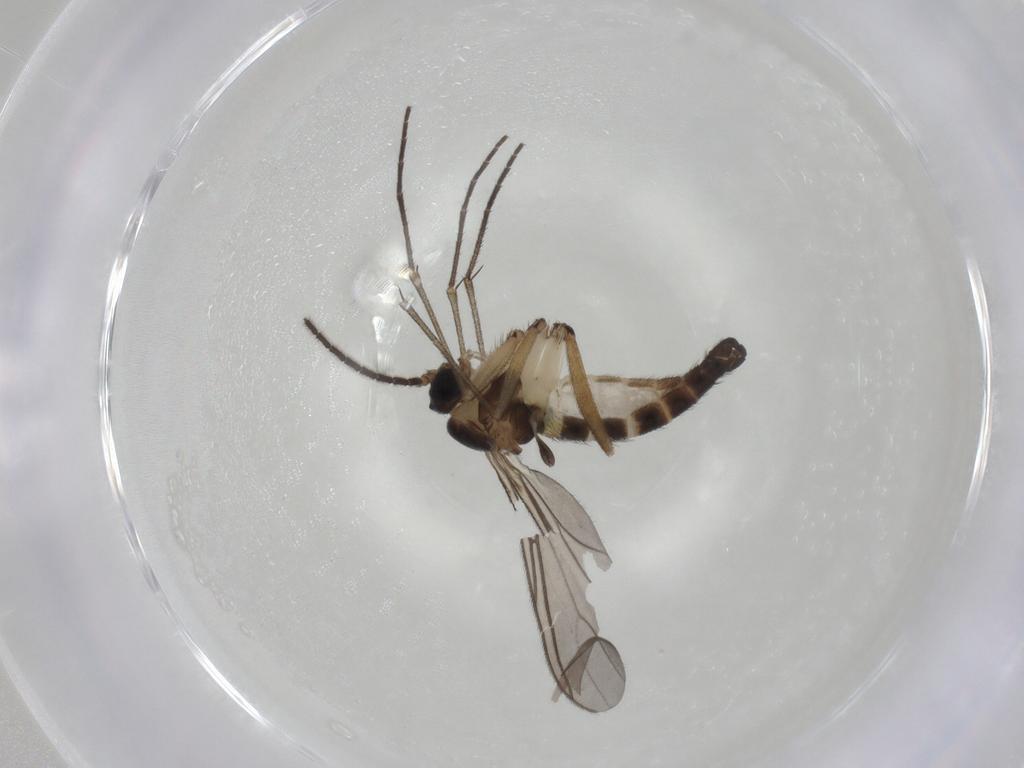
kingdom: Animalia
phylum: Arthropoda
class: Insecta
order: Diptera
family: Sciaridae
